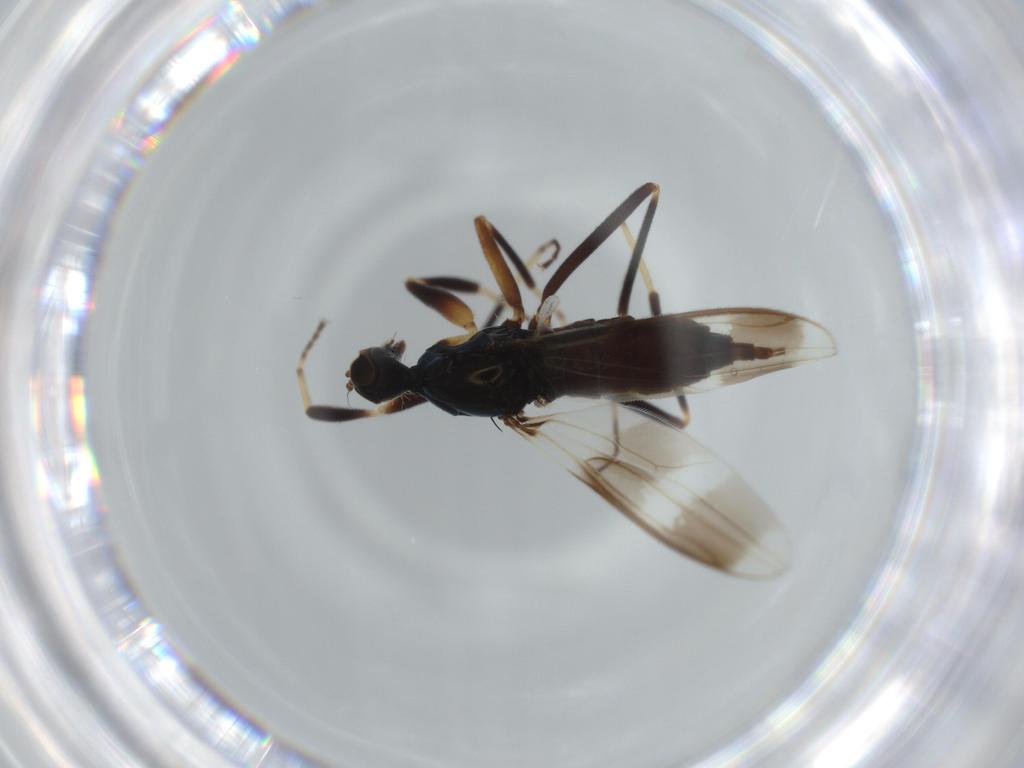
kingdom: Animalia
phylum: Arthropoda
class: Insecta
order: Diptera
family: Hybotidae
